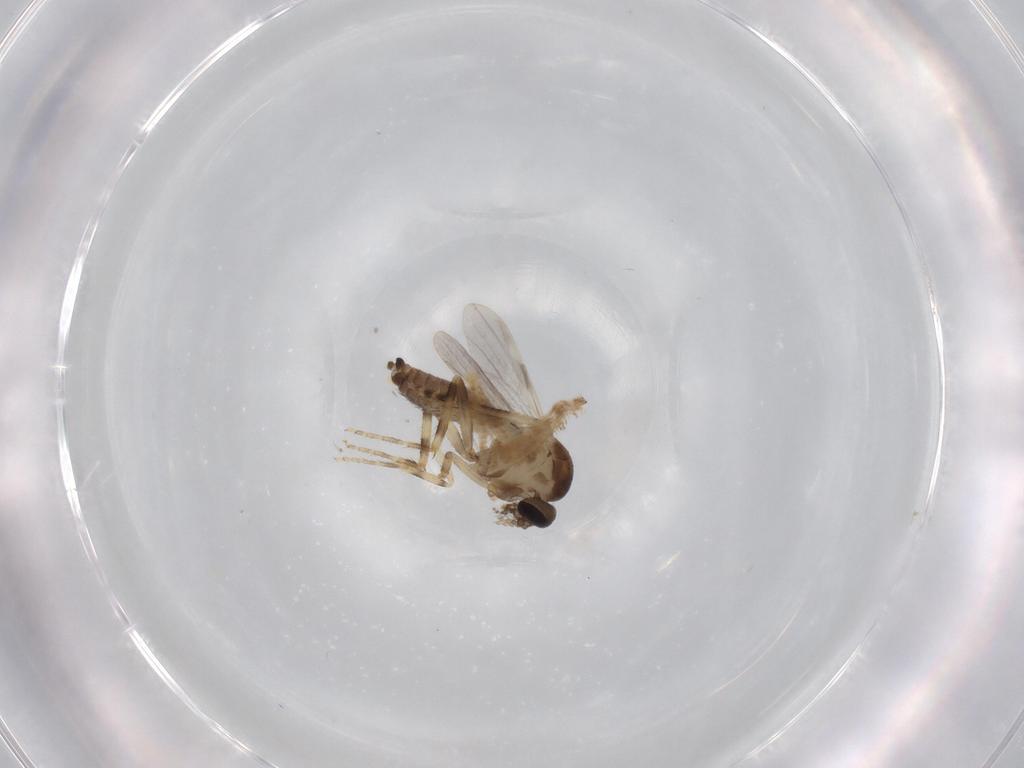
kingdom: Animalia
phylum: Arthropoda
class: Insecta
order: Diptera
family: Ceratopogonidae
